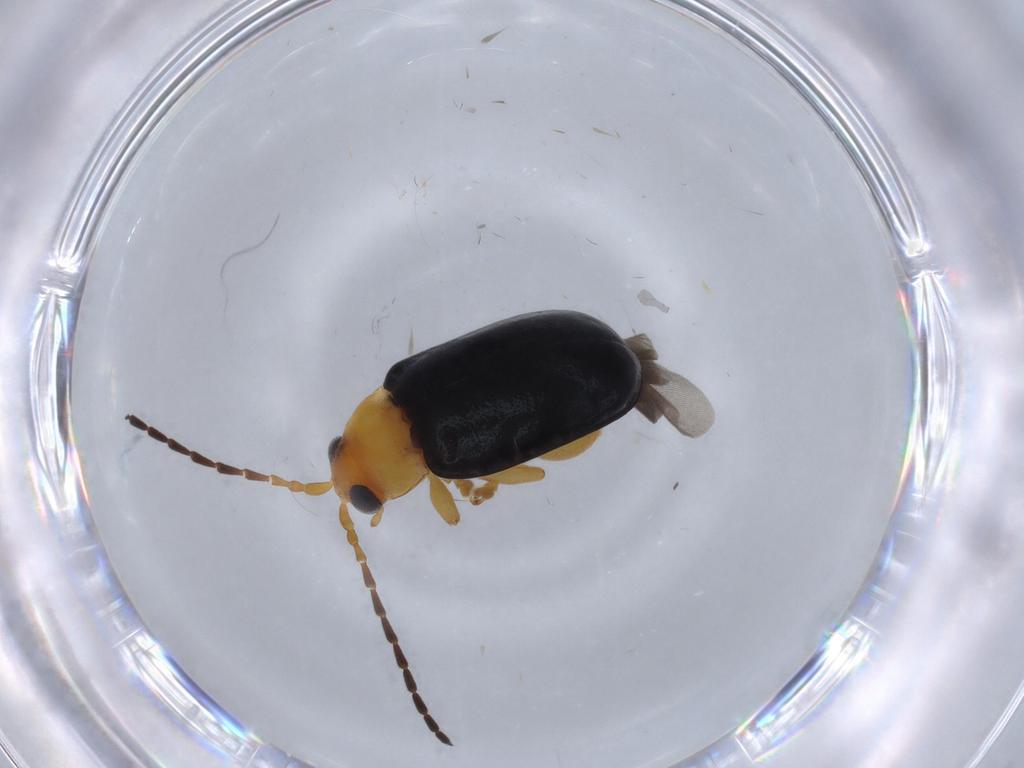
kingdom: Animalia
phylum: Arthropoda
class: Insecta
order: Coleoptera
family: Chrysomelidae
